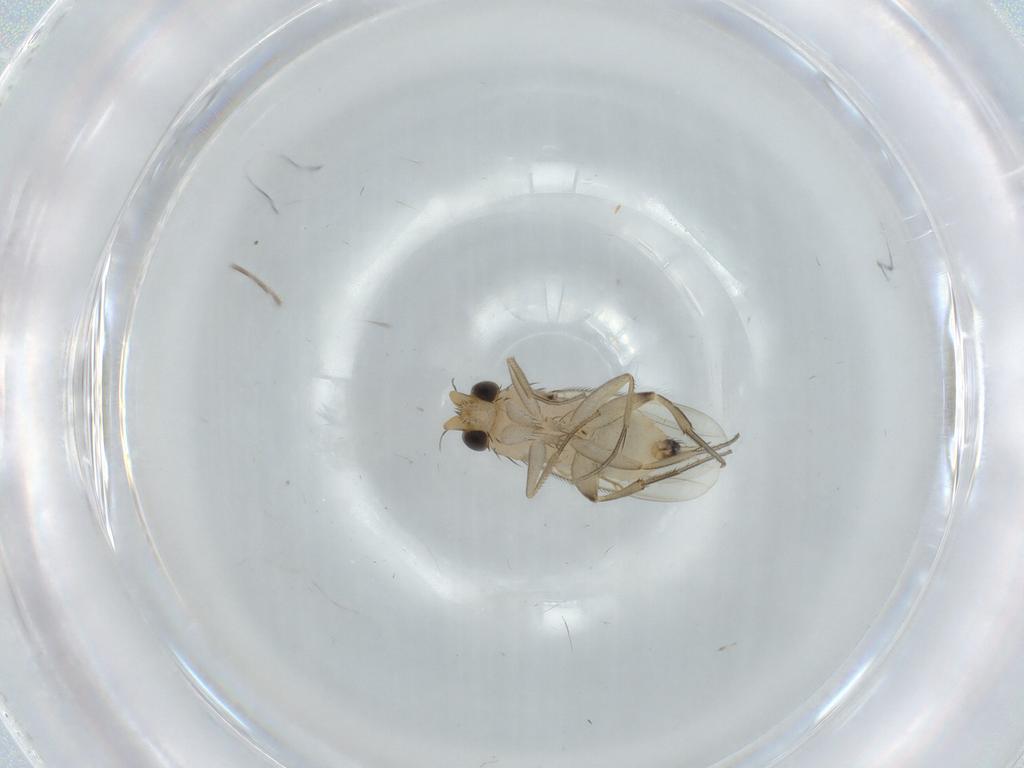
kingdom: Animalia
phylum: Arthropoda
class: Insecta
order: Diptera
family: Phoridae
